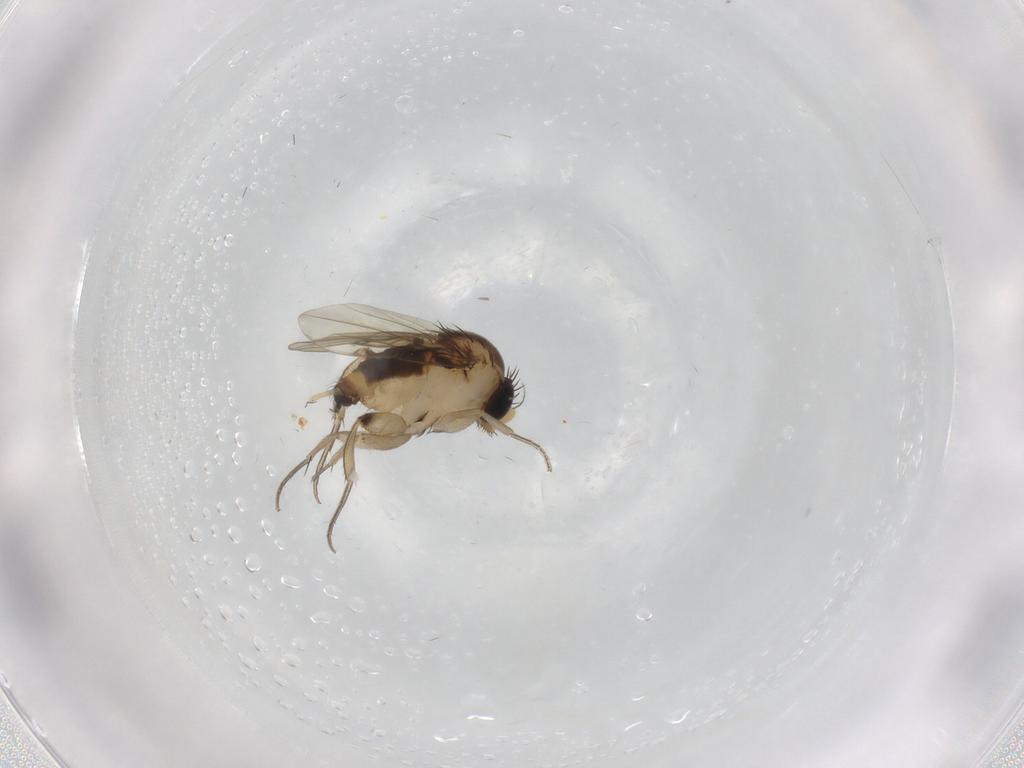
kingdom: Animalia
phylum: Arthropoda
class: Insecta
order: Diptera
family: Phoridae
